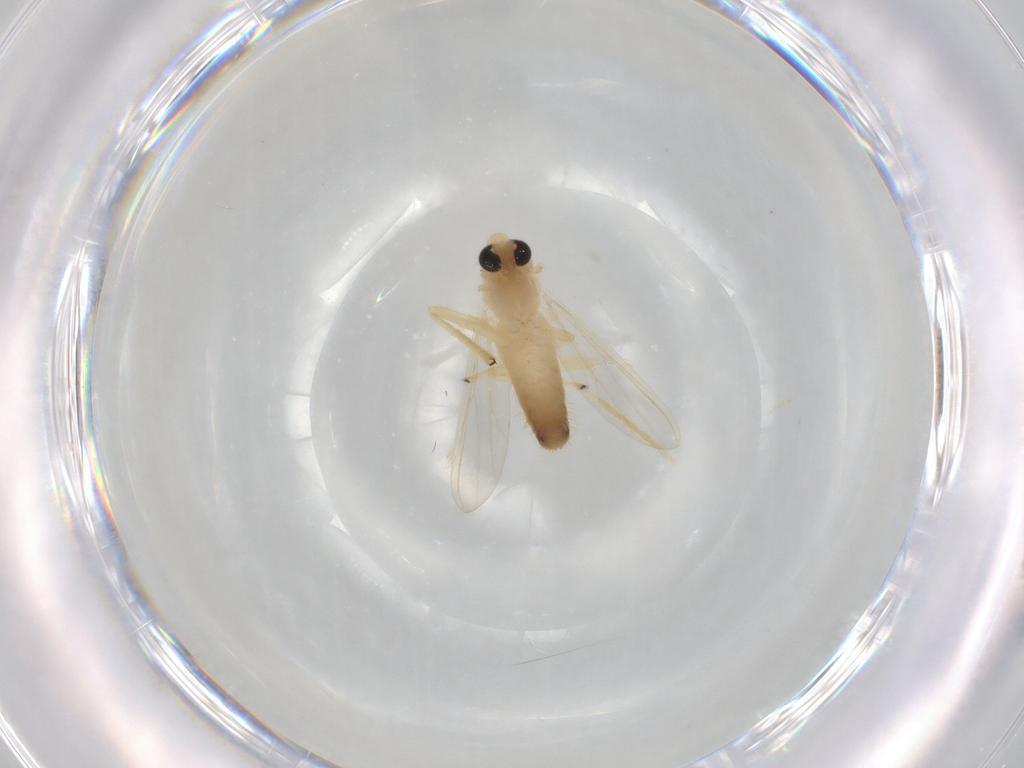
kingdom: Animalia
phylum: Arthropoda
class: Insecta
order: Diptera
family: Chironomidae
